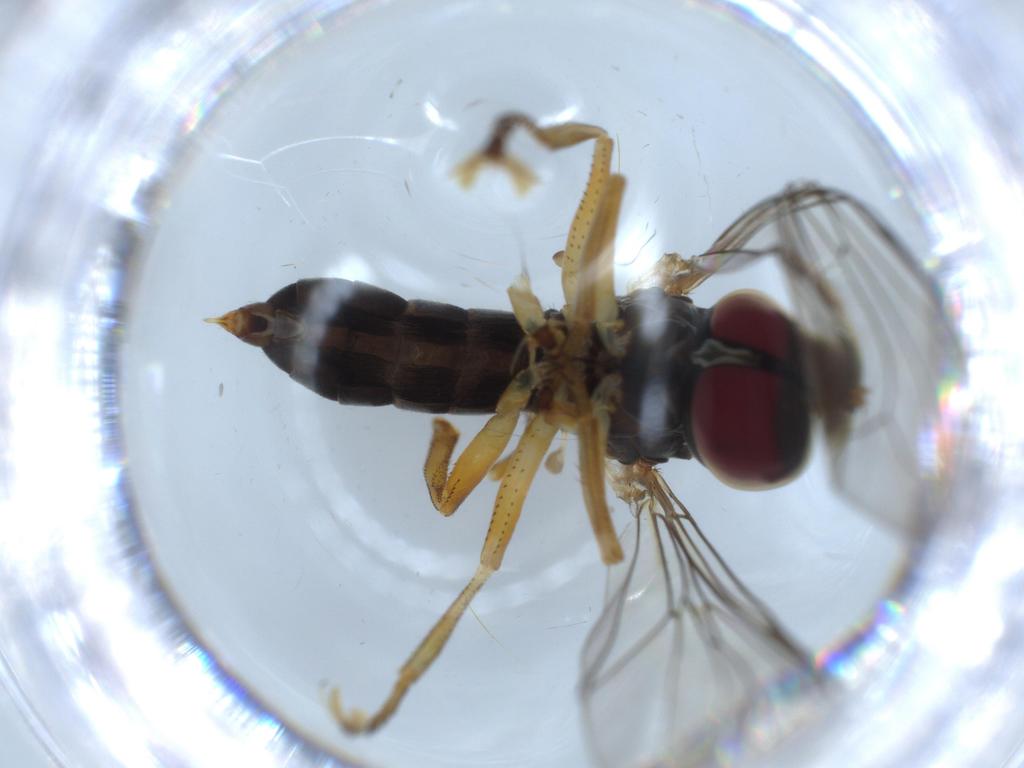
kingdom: Animalia
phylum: Arthropoda
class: Insecta
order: Diptera
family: Pipunculidae
